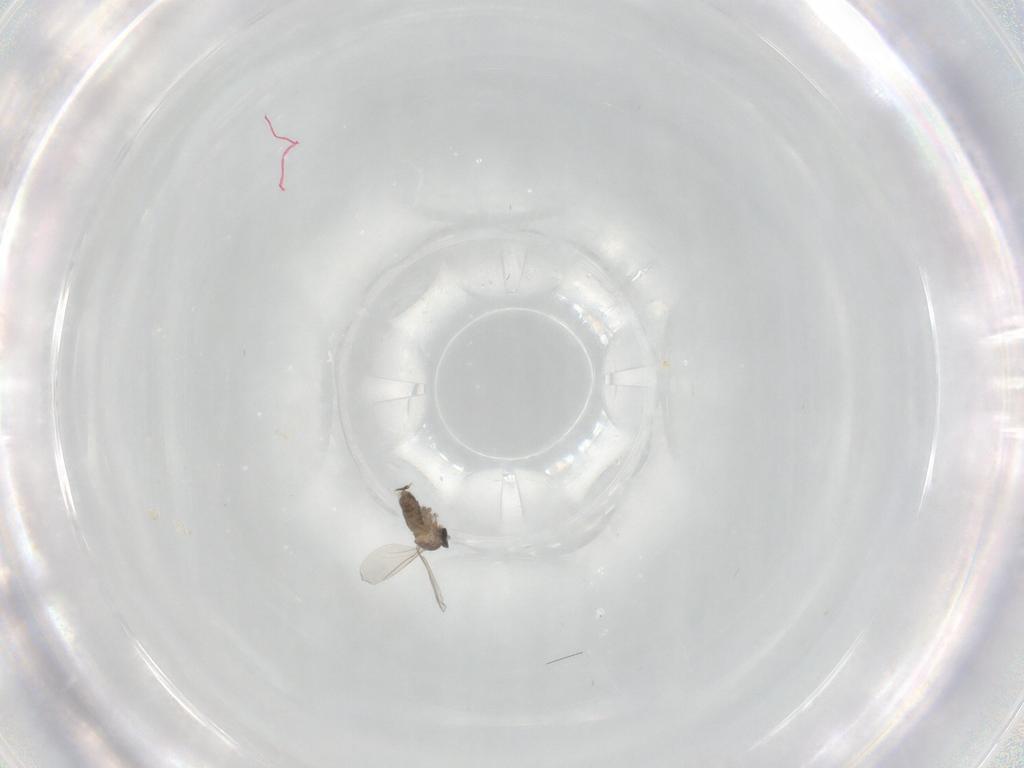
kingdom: Animalia
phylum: Arthropoda
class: Insecta
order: Diptera
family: Cecidomyiidae
